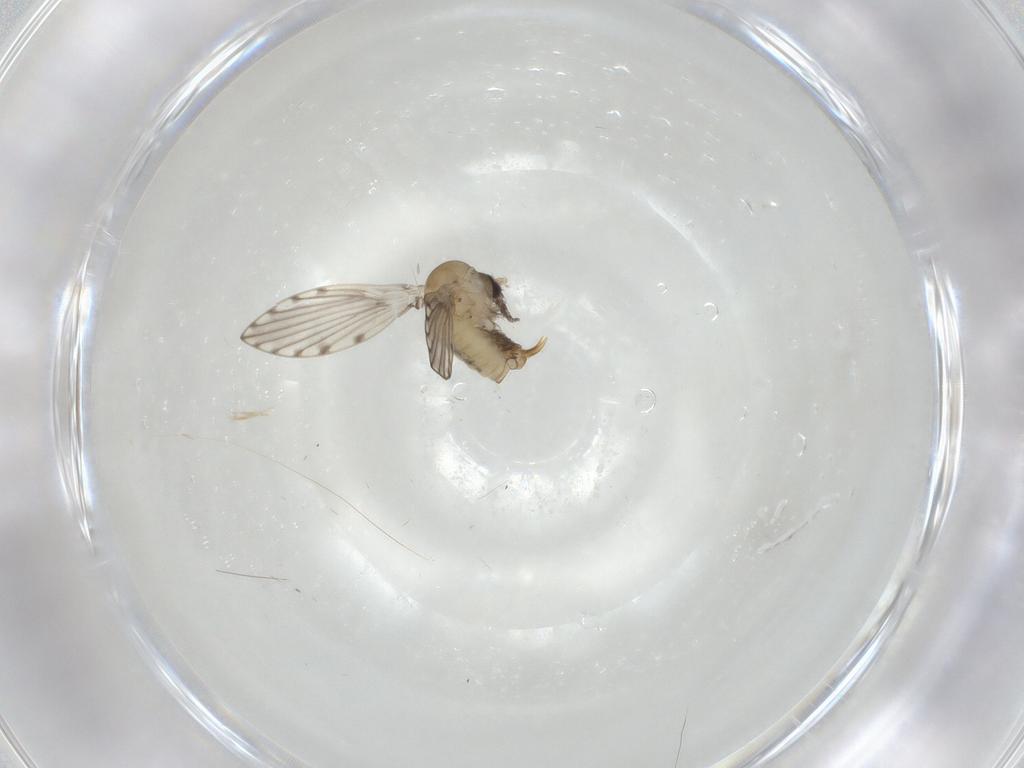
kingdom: Animalia
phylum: Arthropoda
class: Insecta
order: Diptera
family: Psychodidae
